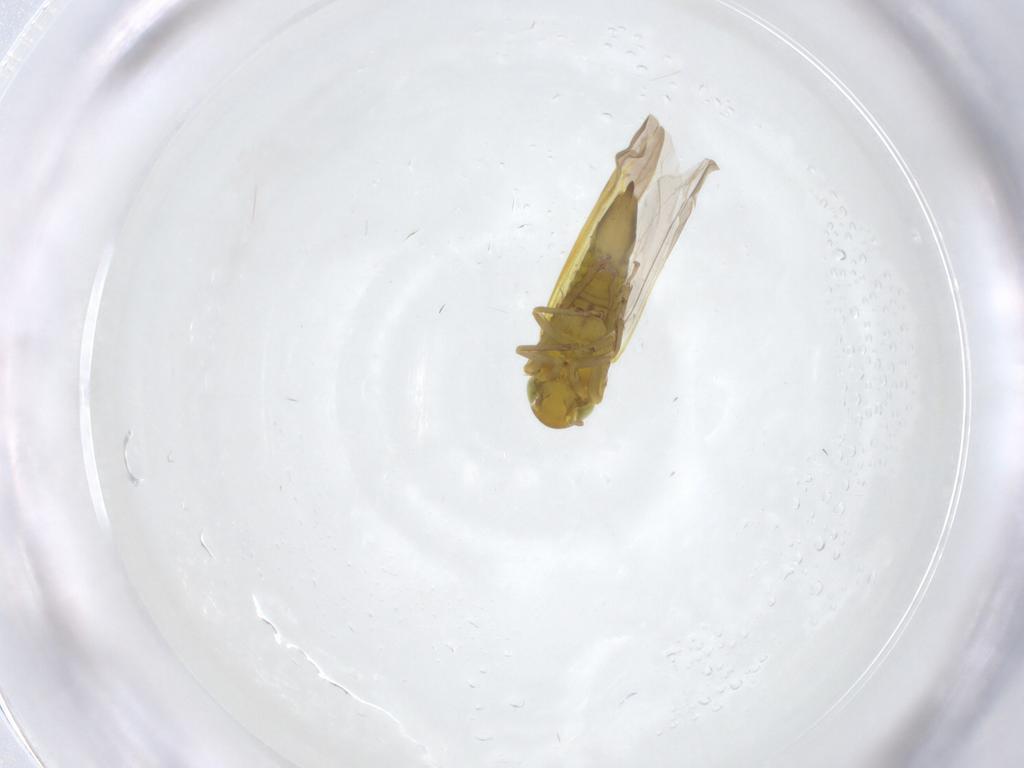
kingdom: Animalia
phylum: Arthropoda
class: Insecta
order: Hemiptera
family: Cicadellidae
